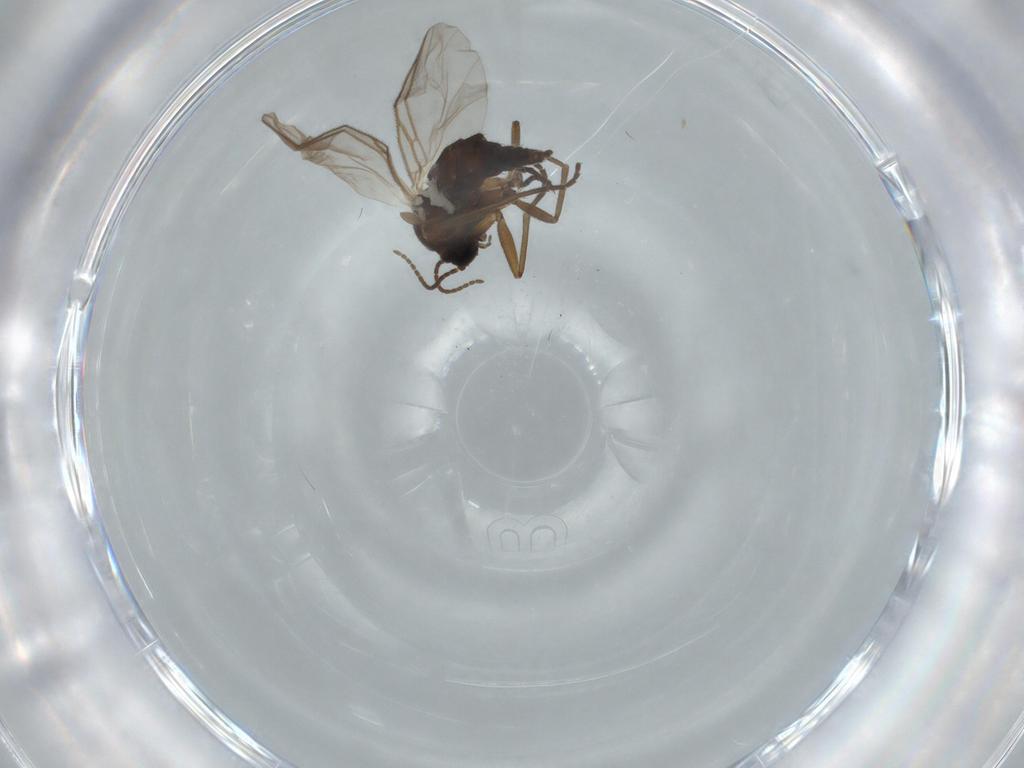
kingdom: Animalia
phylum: Arthropoda
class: Insecta
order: Diptera
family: Sciaridae
